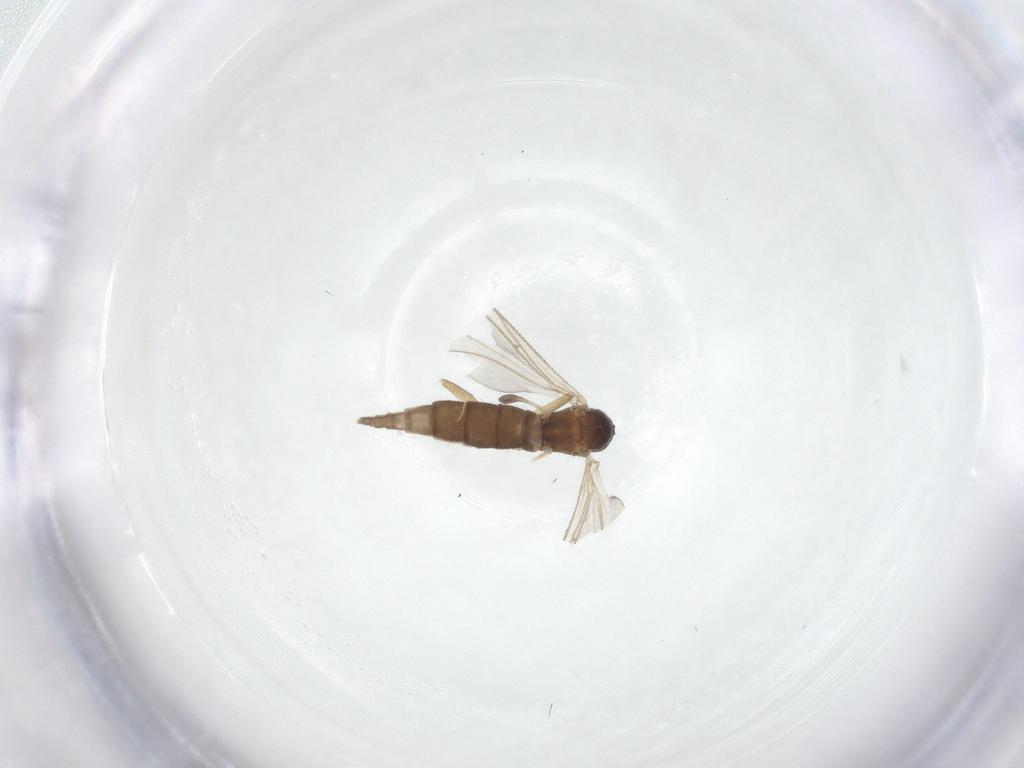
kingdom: Animalia
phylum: Arthropoda
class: Insecta
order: Diptera
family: Sciaridae
